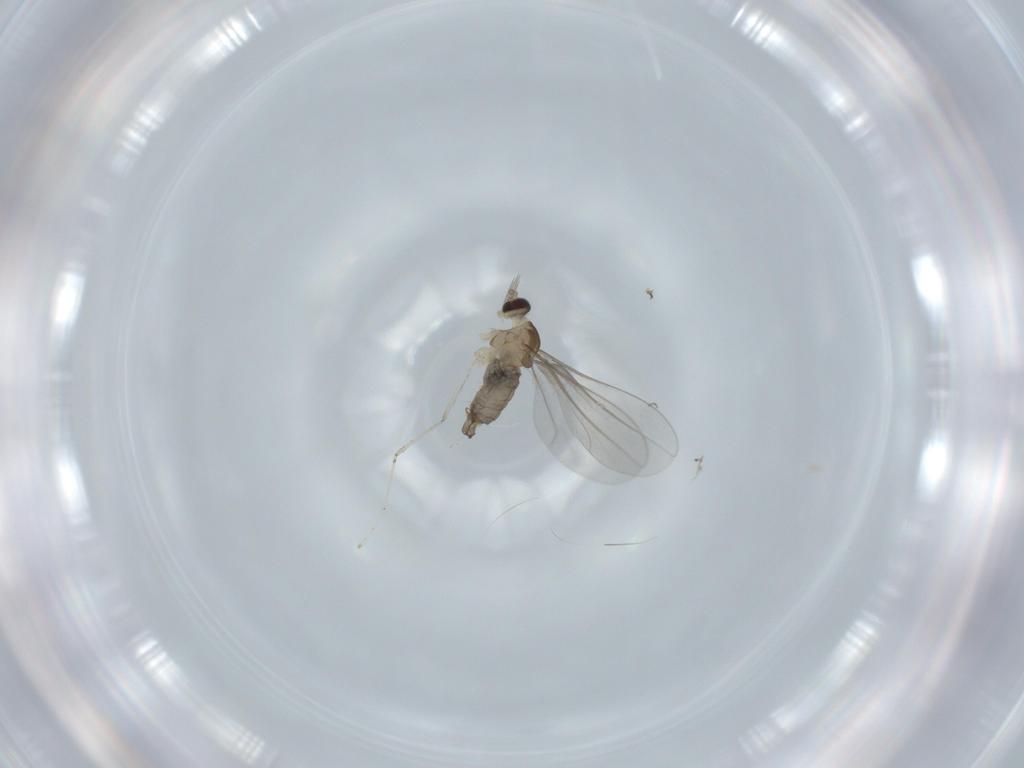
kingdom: Animalia
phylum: Arthropoda
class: Insecta
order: Diptera
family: Cecidomyiidae
